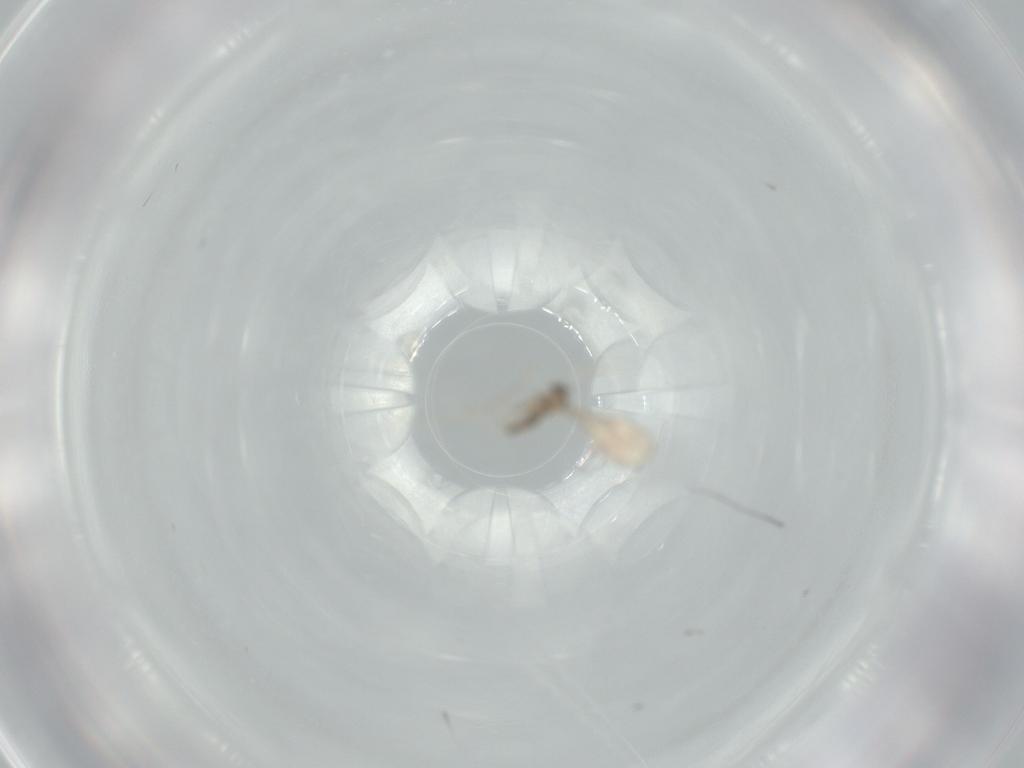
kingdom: Animalia
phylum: Arthropoda
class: Insecta
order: Diptera
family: Cecidomyiidae
